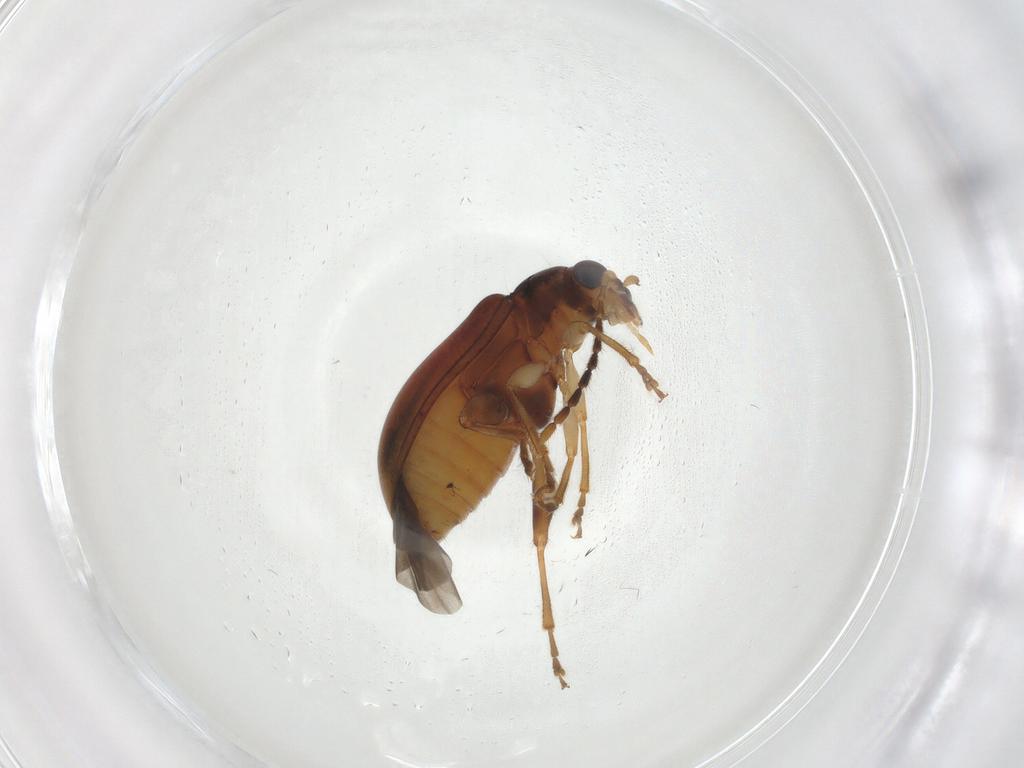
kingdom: Animalia
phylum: Arthropoda
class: Insecta
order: Coleoptera
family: Chrysomelidae
